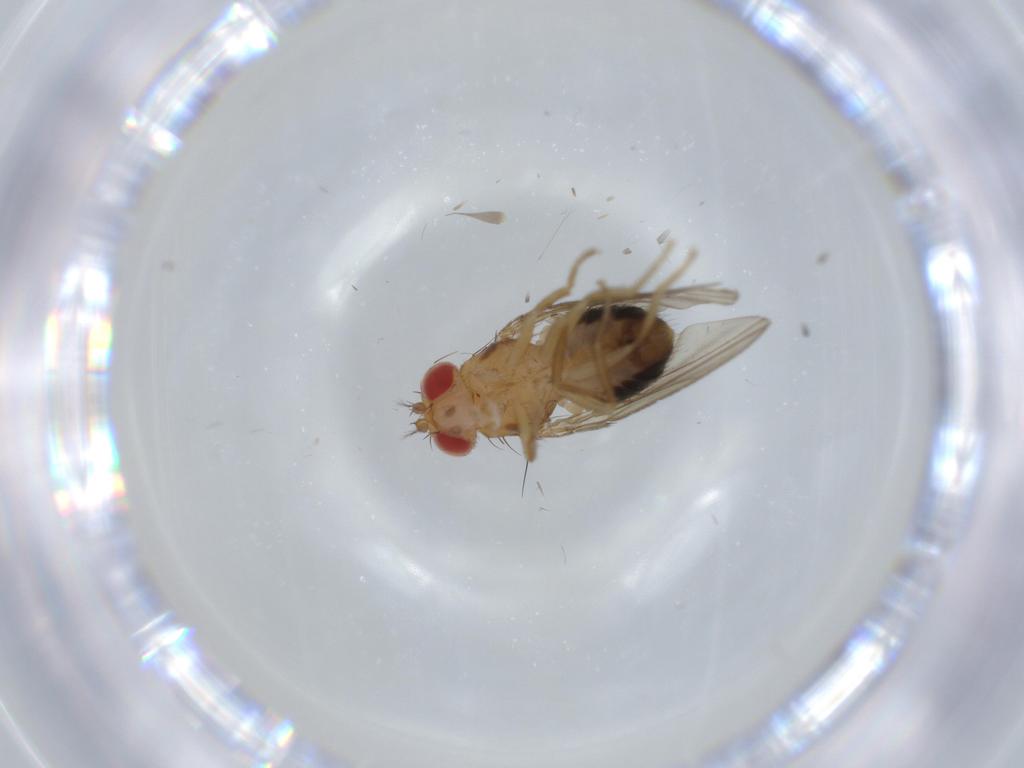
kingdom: Animalia
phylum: Arthropoda
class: Insecta
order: Diptera
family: Drosophilidae
